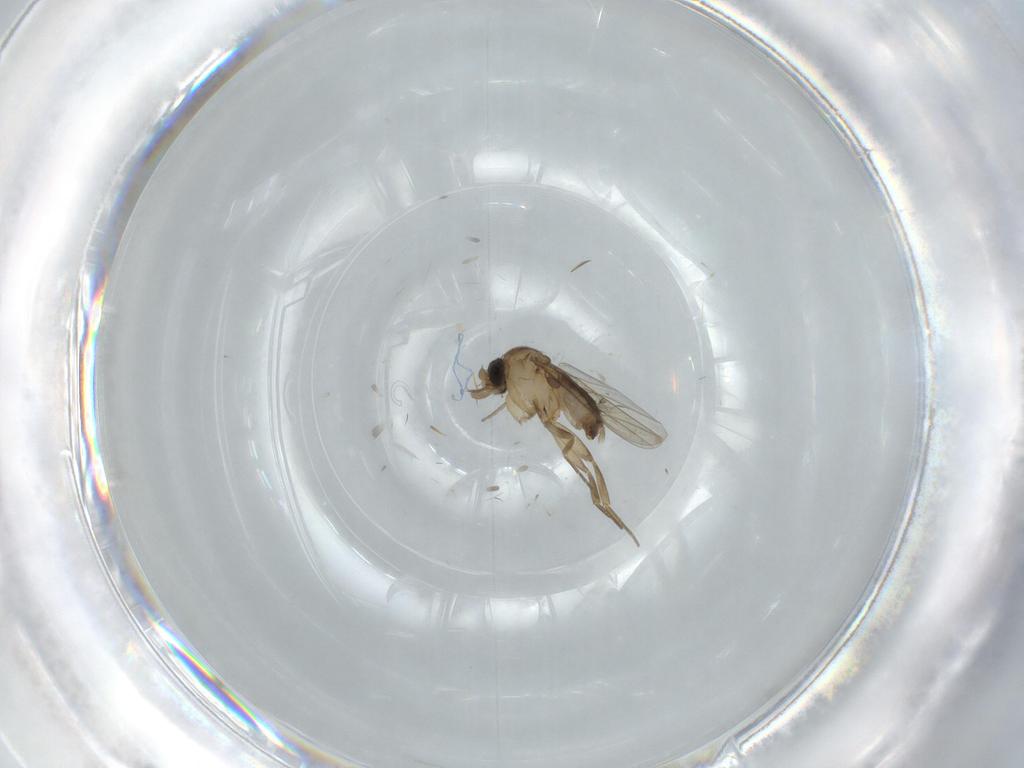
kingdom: Animalia
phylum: Arthropoda
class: Insecta
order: Diptera
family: Phoridae
